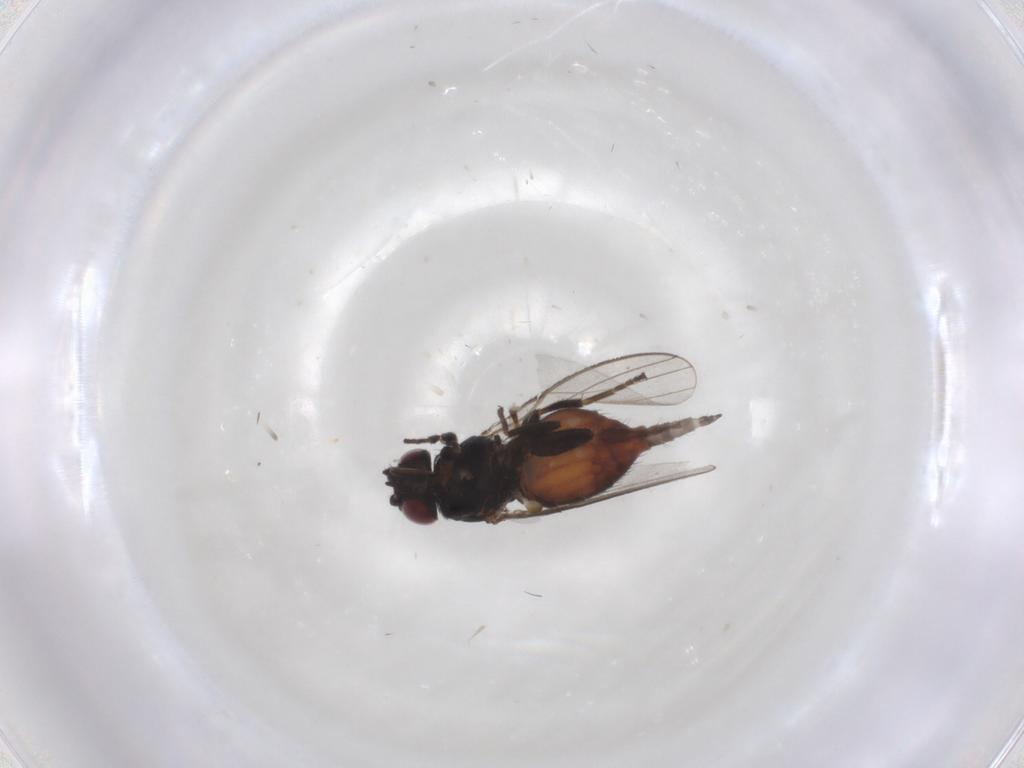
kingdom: Animalia
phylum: Arthropoda
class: Insecta
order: Diptera
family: Milichiidae
